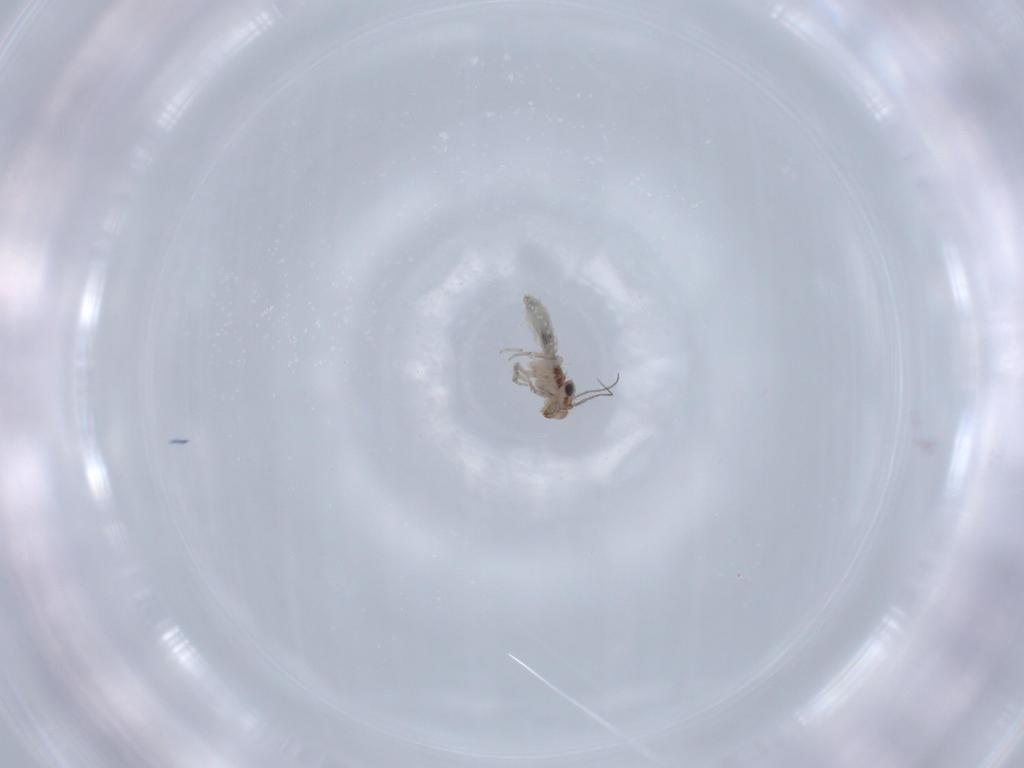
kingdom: Animalia
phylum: Arthropoda
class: Insecta
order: Psocodea
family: Lepidopsocidae
